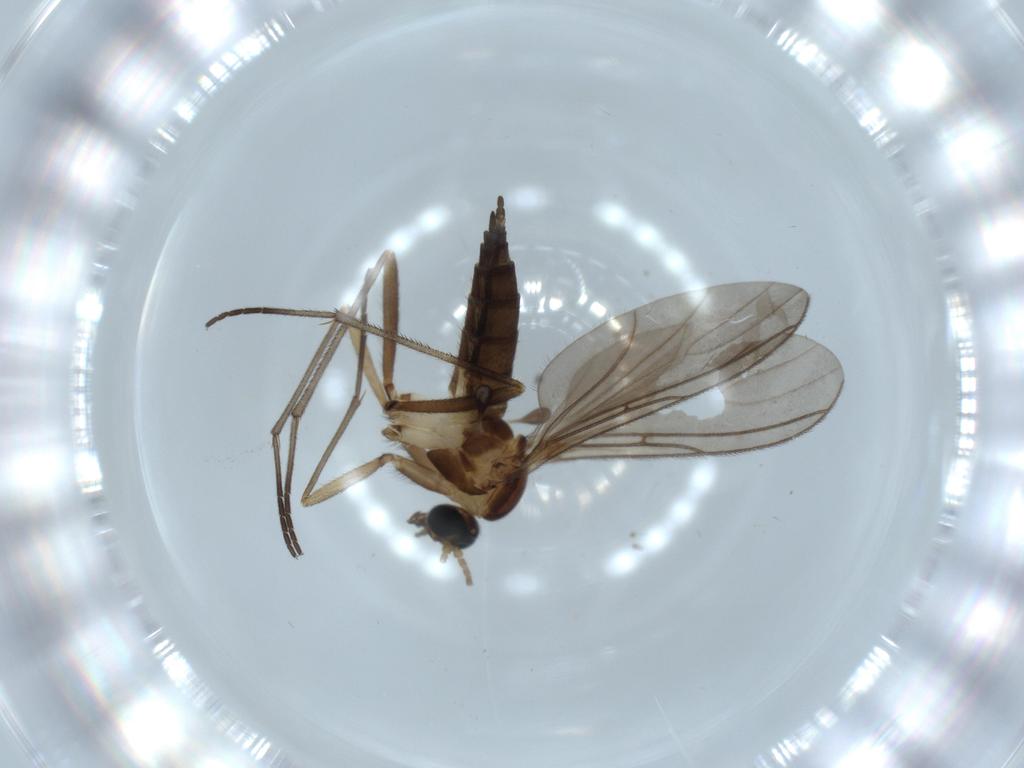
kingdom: Animalia
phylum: Arthropoda
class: Insecta
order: Diptera
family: Sciaridae
